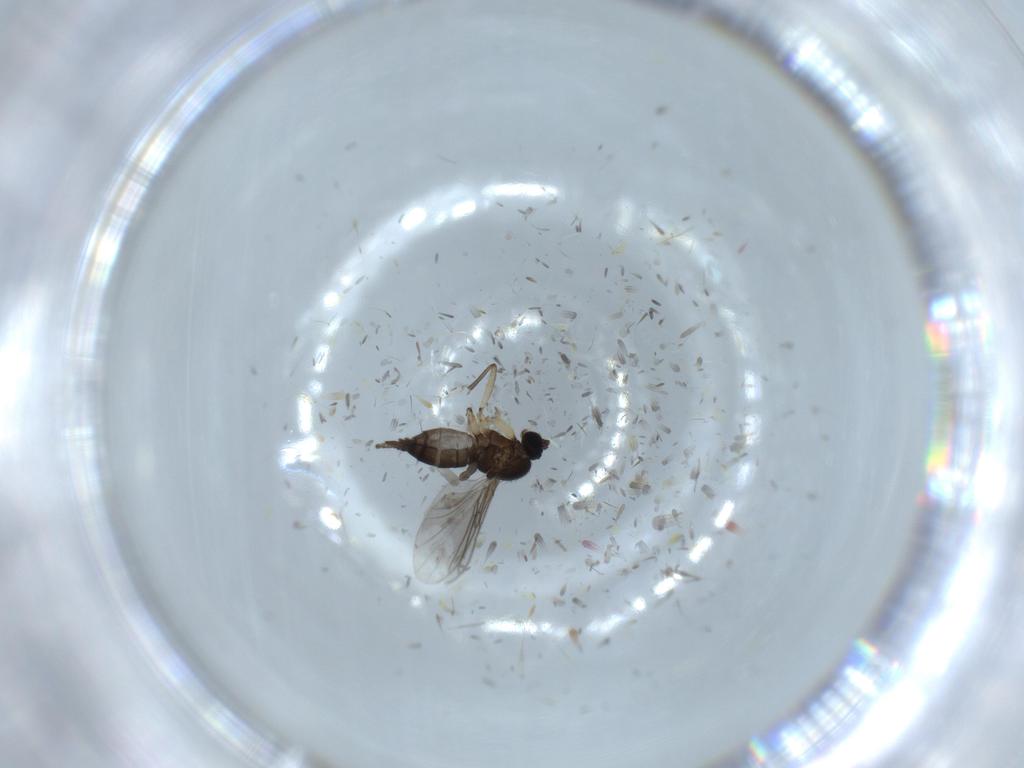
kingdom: Animalia
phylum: Arthropoda
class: Insecta
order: Diptera
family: Sciaridae
